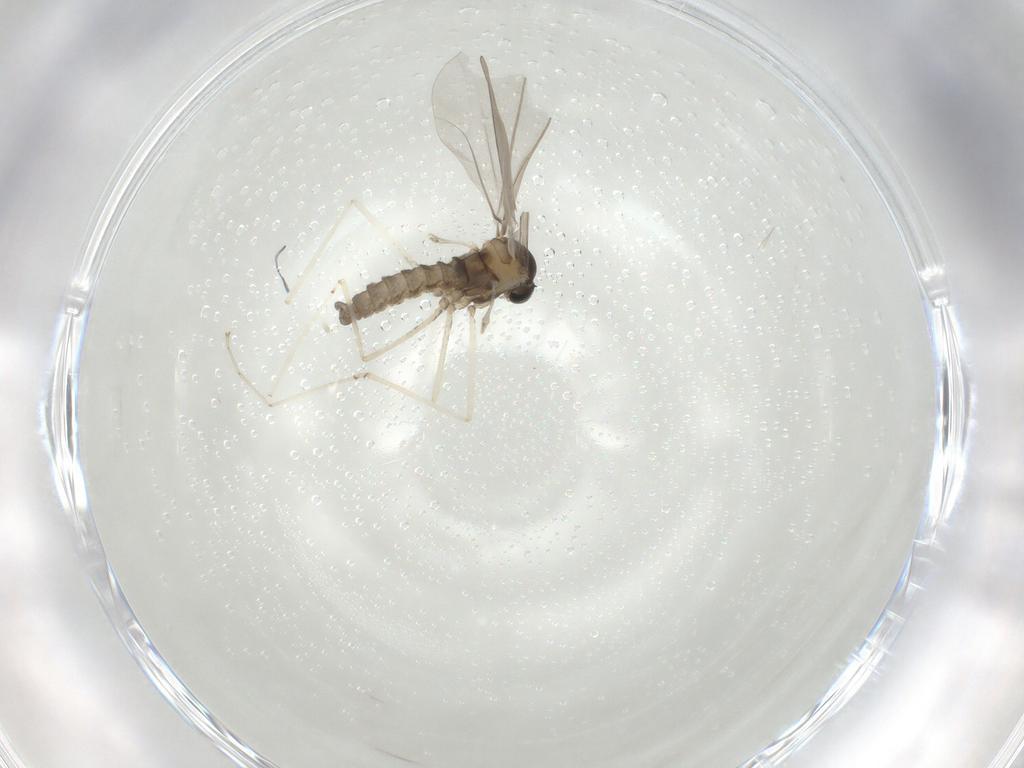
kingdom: Animalia
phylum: Arthropoda
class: Insecta
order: Diptera
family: Cecidomyiidae
